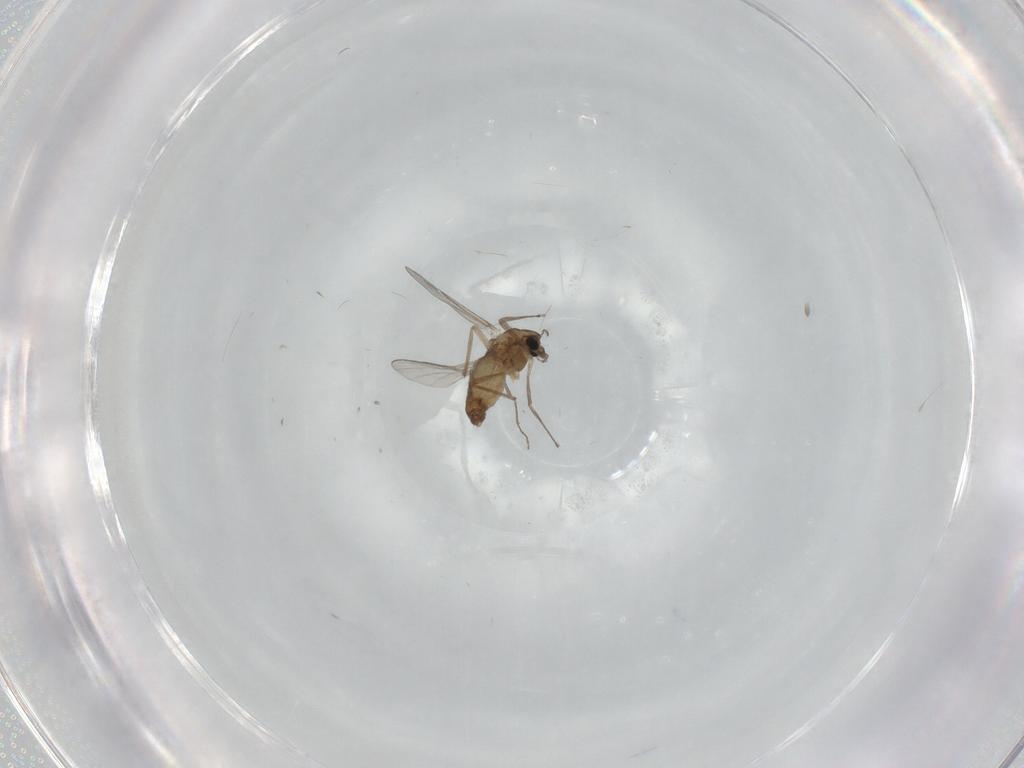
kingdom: Animalia
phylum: Arthropoda
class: Insecta
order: Diptera
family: Chironomidae
